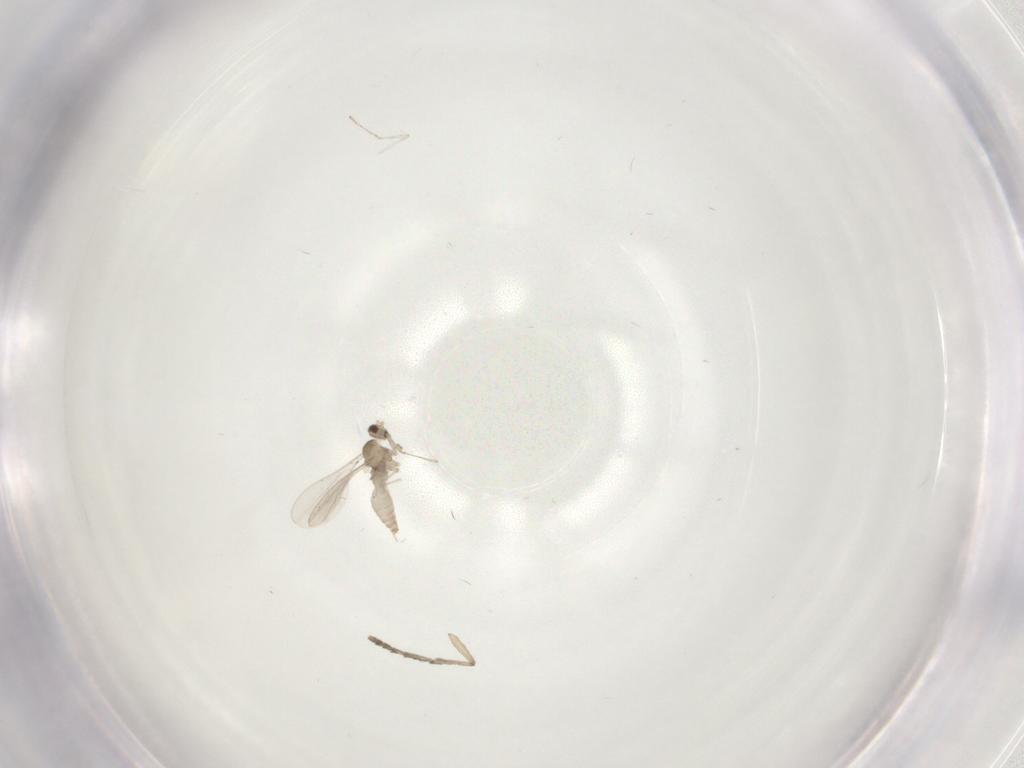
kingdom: Animalia
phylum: Arthropoda
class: Insecta
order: Diptera
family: Cecidomyiidae
